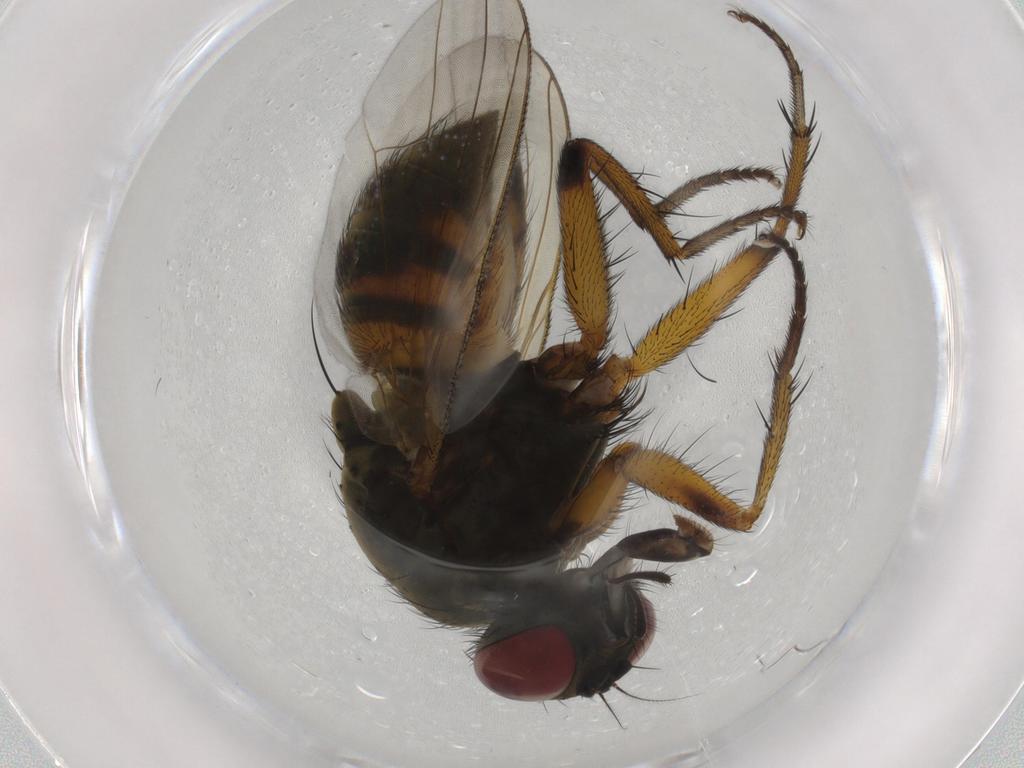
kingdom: Animalia
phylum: Arthropoda
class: Insecta
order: Diptera
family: Muscidae
